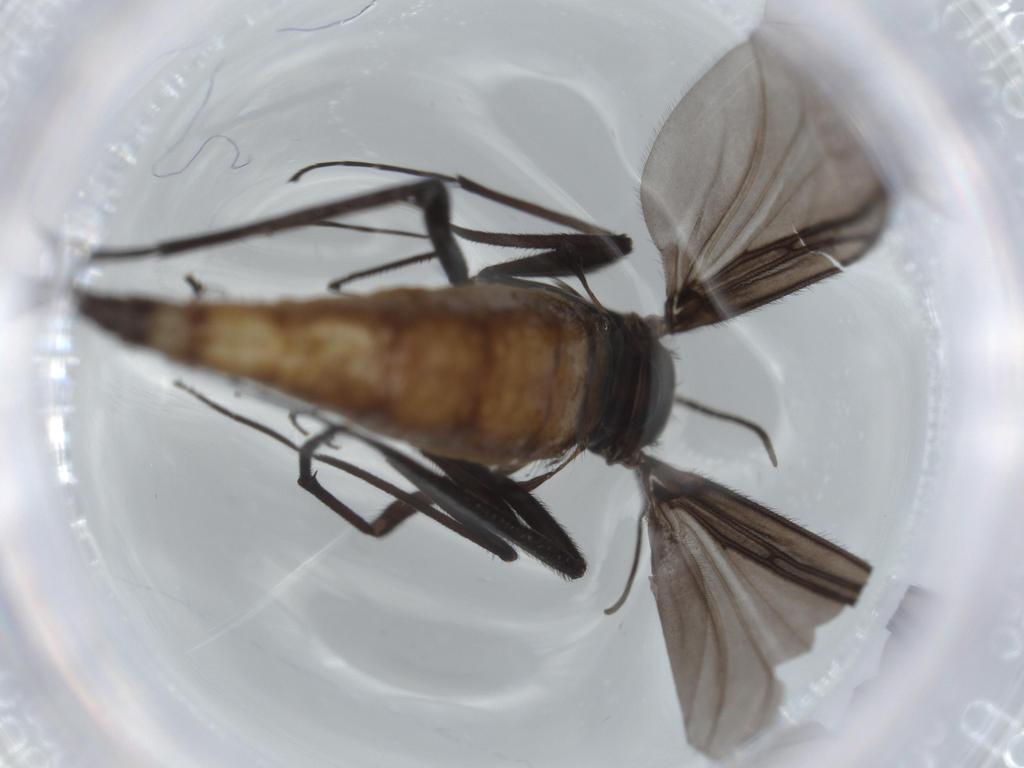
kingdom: Animalia
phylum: Arthropoda
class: Insecta
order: Diptera
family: Sciaridae
